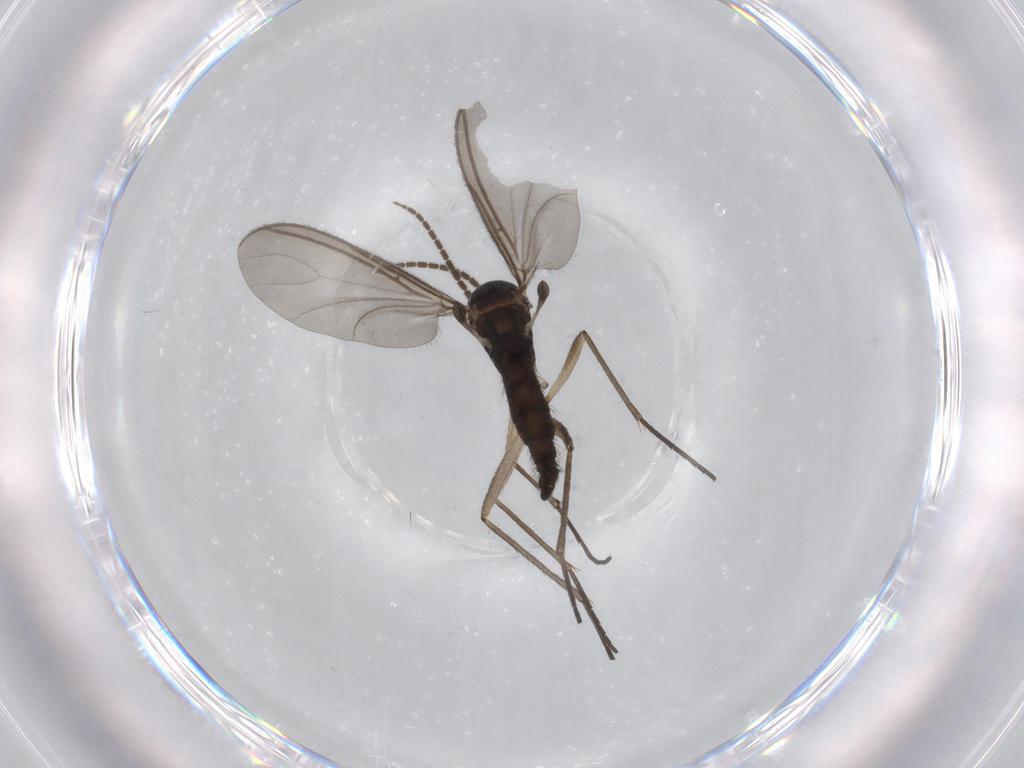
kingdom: Animalia
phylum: Arthropoda
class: Insecta
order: Diptera
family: Sciaridae
